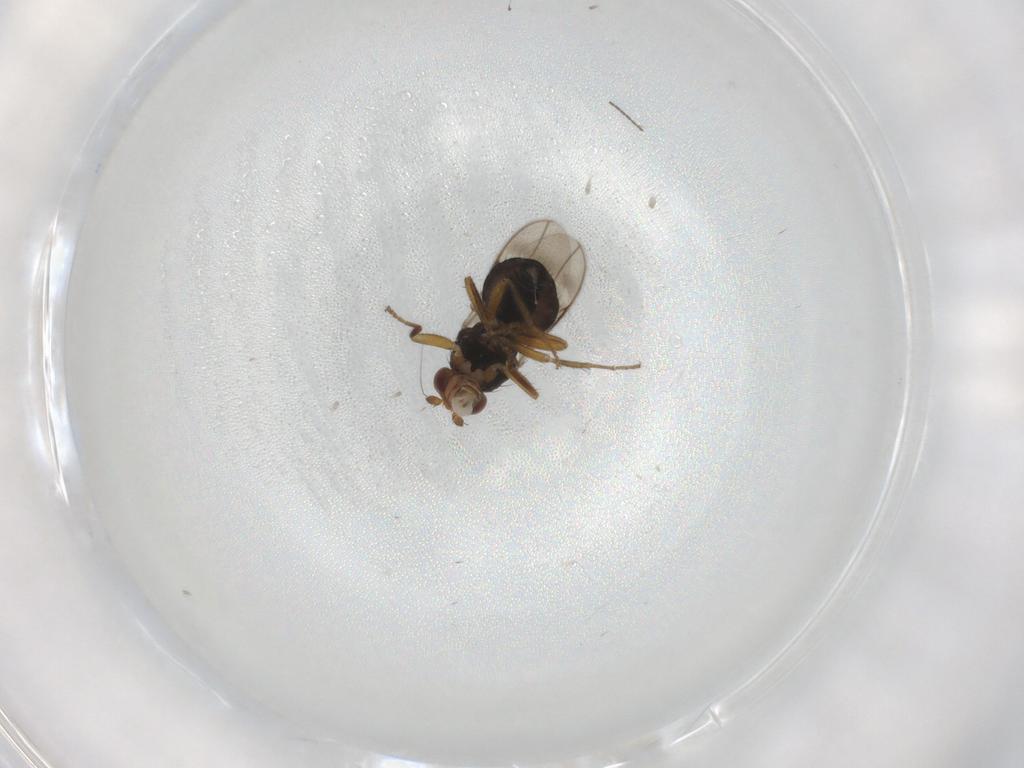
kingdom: Animalia
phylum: Arthropoda
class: Insecta
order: Diptera
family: Sphaeroceridae
